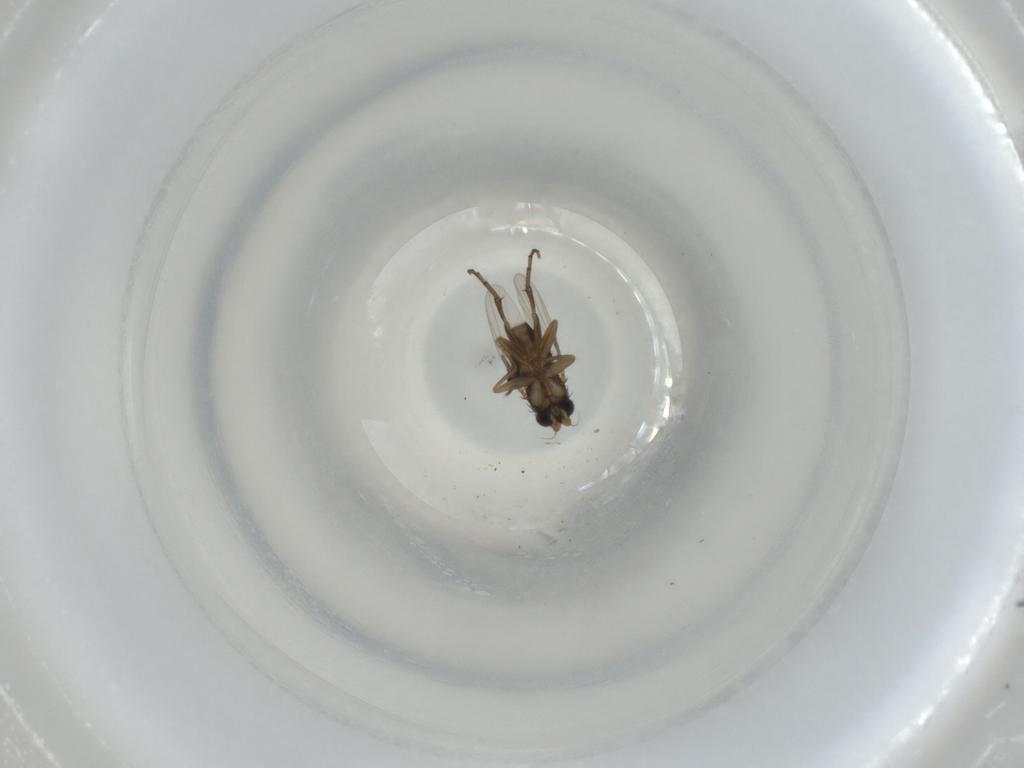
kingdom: Animalia
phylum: Arthropoda
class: Insecta
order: Diptera
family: Phoridae
